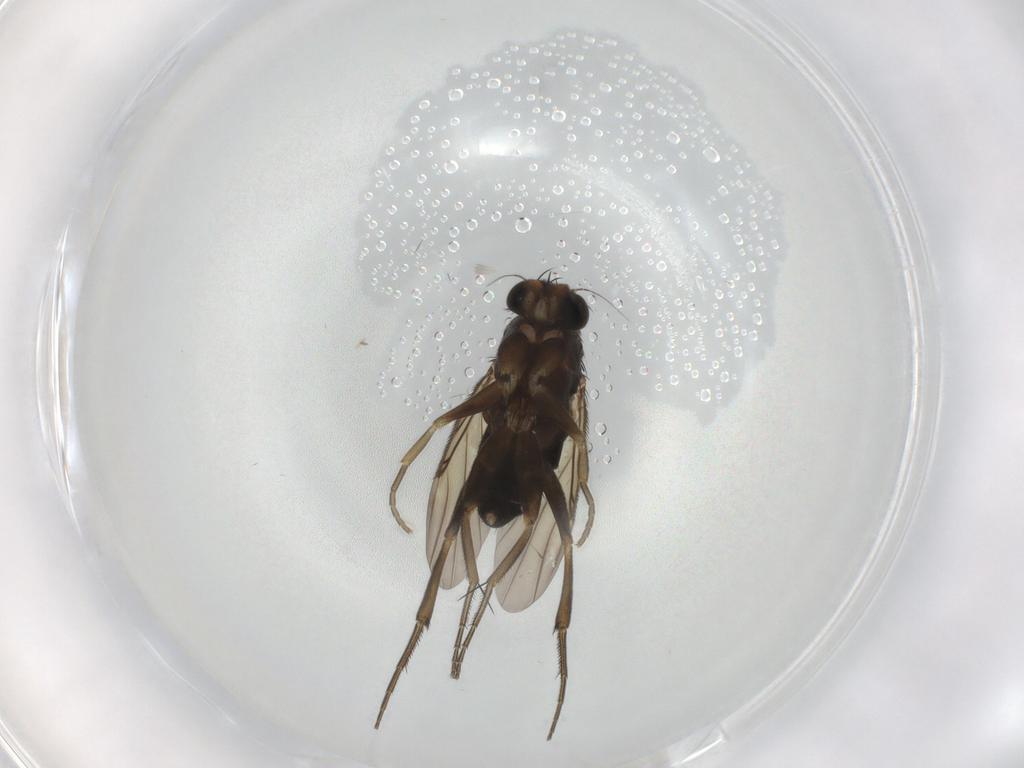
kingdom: Animalia
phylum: Arthropoda
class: Insecta
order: Diptera
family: Phoridae
